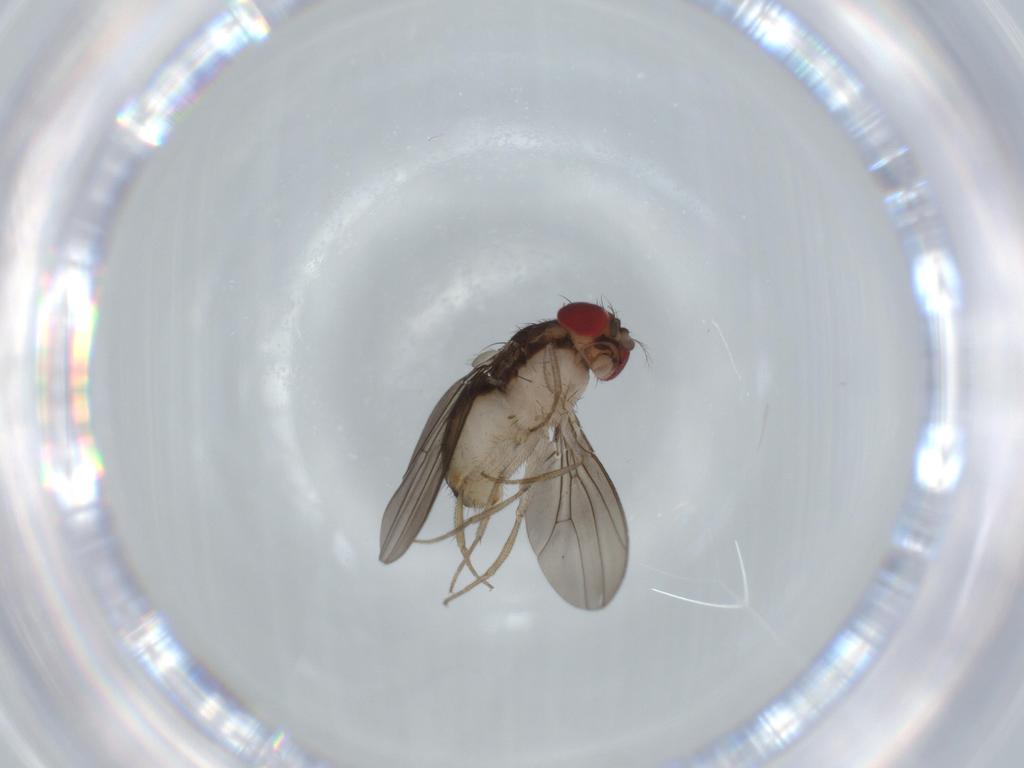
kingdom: Animalia
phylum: Arthropoda
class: Insecta
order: Diptera
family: Drosophilidae
